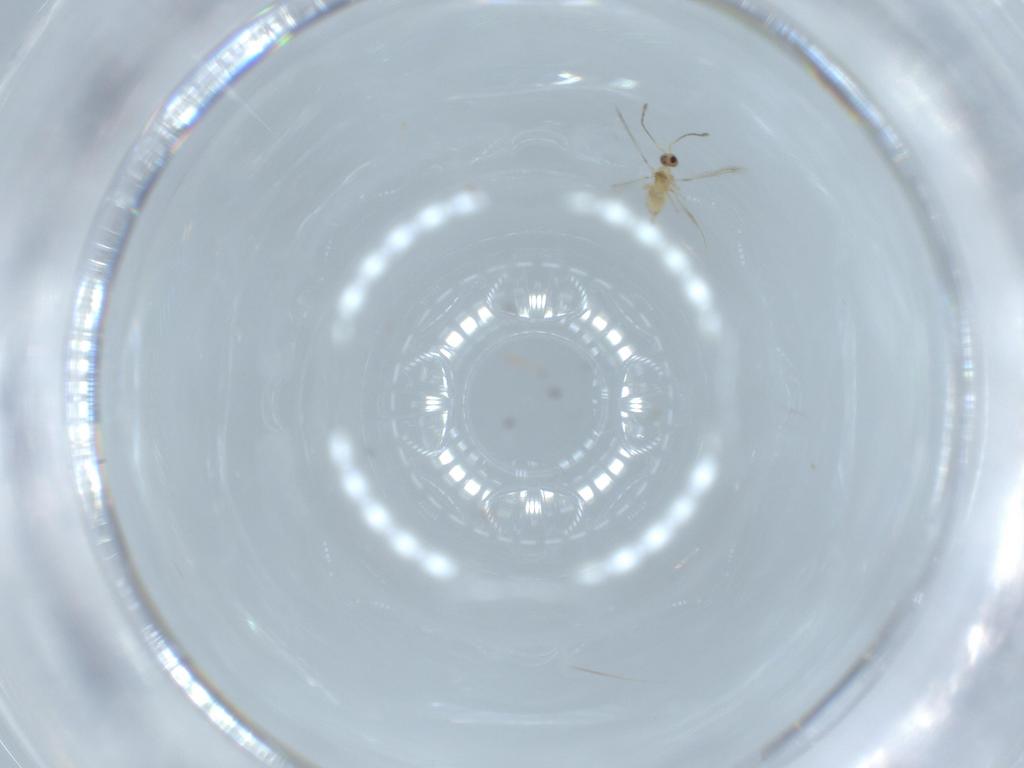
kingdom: Animalia
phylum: Arthropoda
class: Insecta
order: Hymenoptera
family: Mymaridae
